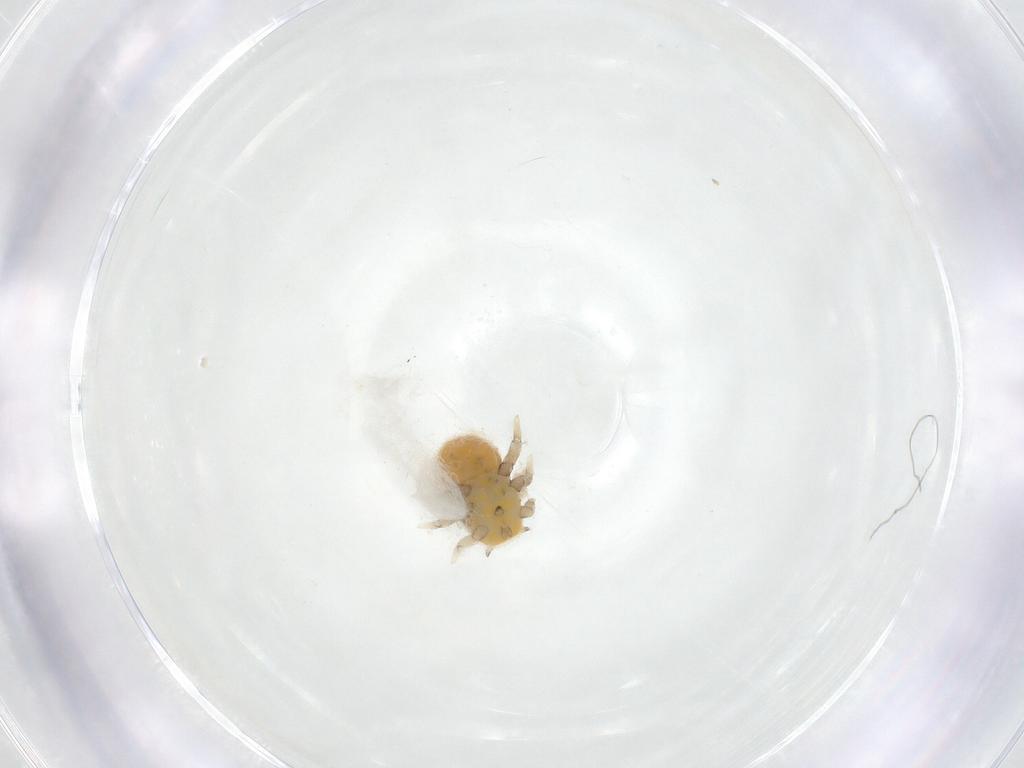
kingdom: Animalia
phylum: Arthropoda
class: Insecta
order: Hemiptera
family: Triozidae
